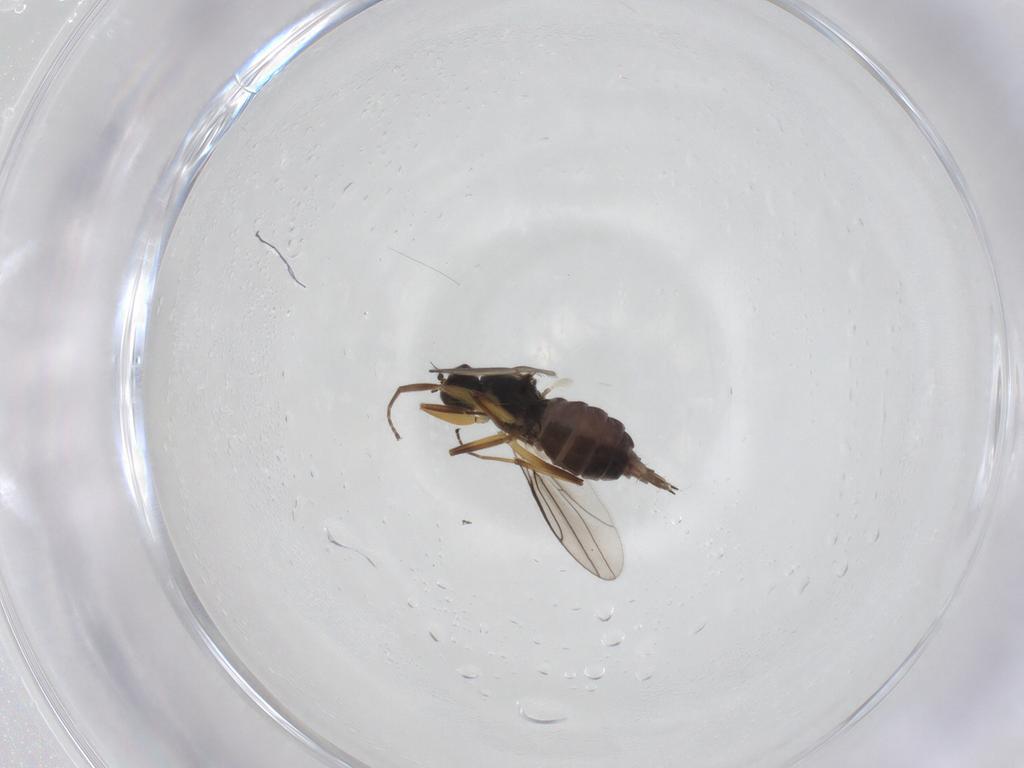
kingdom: Animalia
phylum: Arthropoda
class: Insecta
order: Diptera
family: Hybotidae
